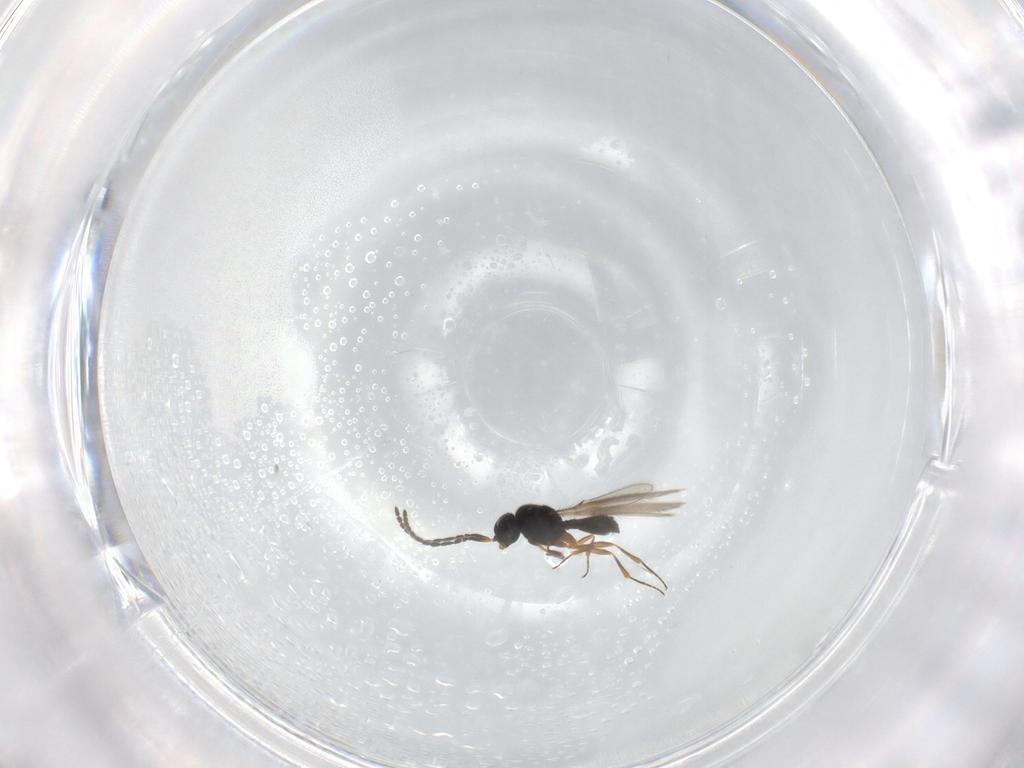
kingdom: Animalia
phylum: Arthropoda
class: Insecta
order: Hymenoptera
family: Scelionidae
